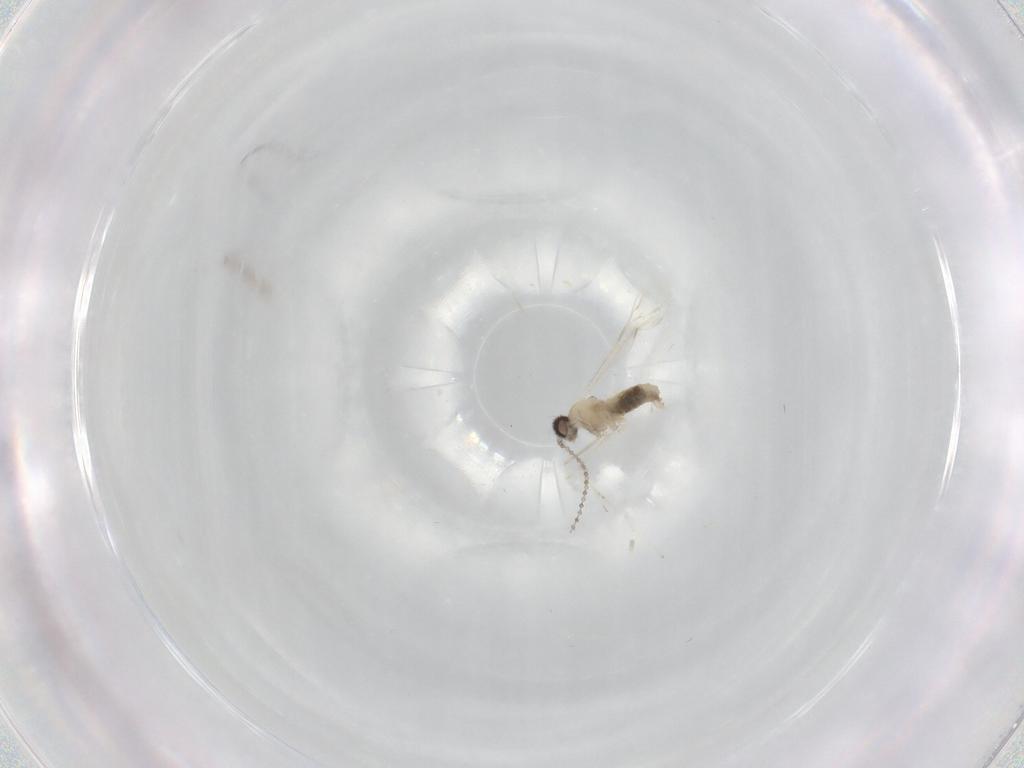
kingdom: Animalia
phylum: Arthropoda
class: Insecta
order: Diptera
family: Cecidomyiidae
